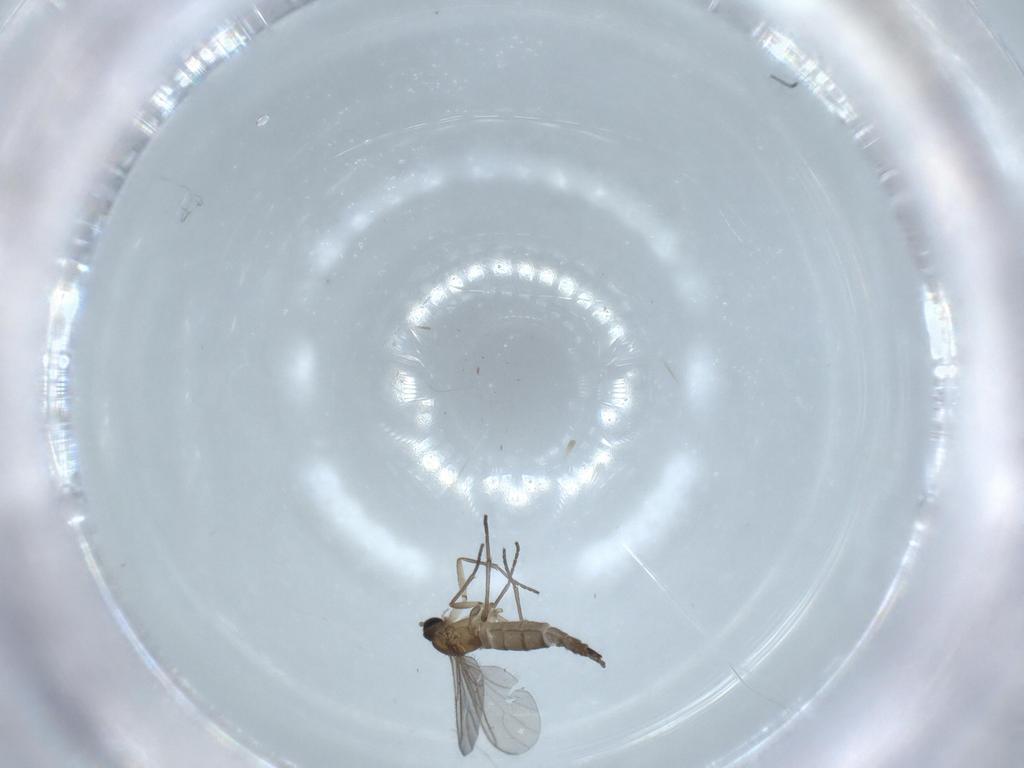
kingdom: Animalia
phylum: Arthropoda
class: Insecta
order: Diptera
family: Sciaridae
